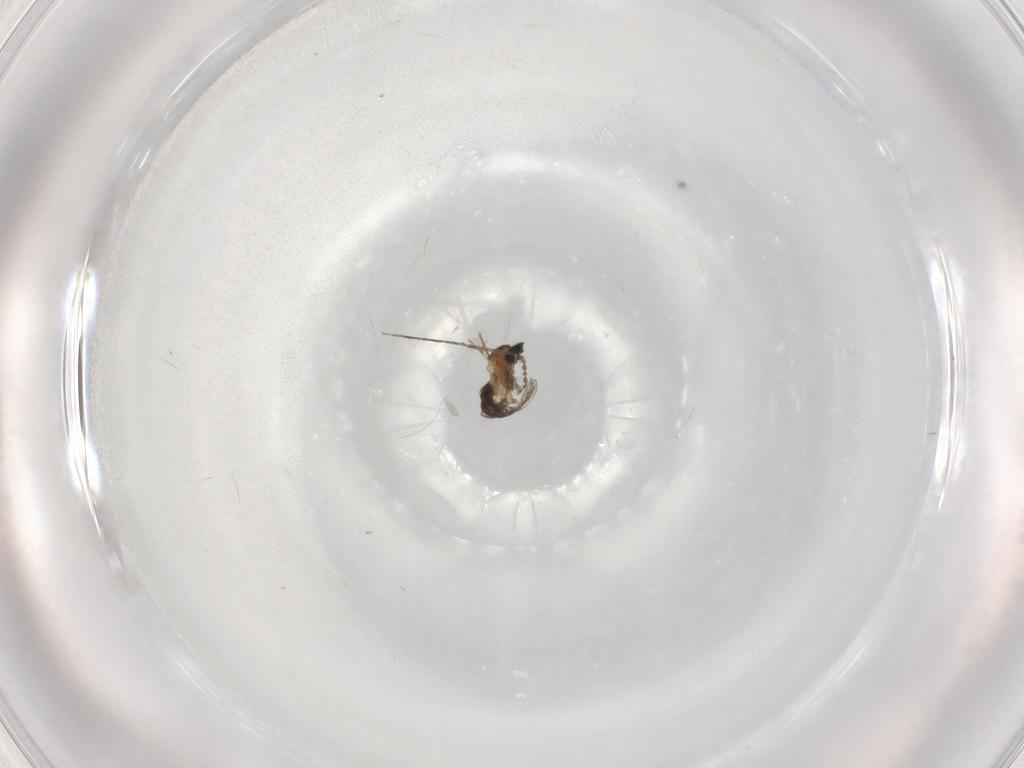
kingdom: Animalia
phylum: Arthropoda
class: Insecta
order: Diptera
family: Cecidomyiidae
